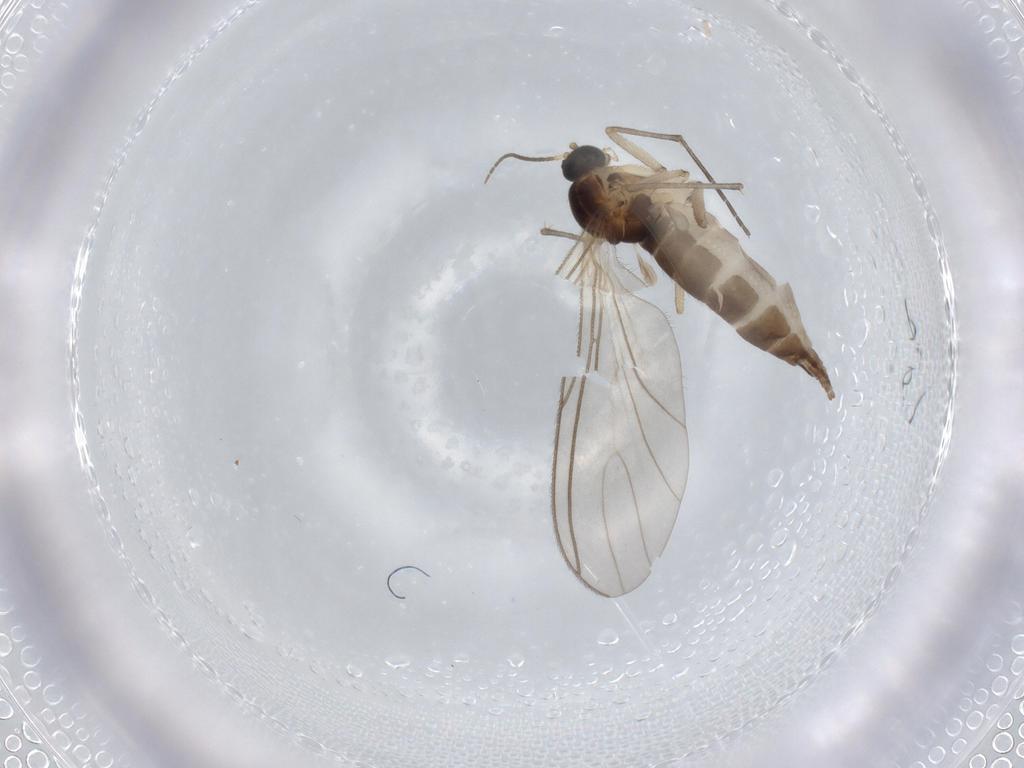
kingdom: Animalia
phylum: Arthropoda
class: Insecta
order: Diptera
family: Sciaridae
